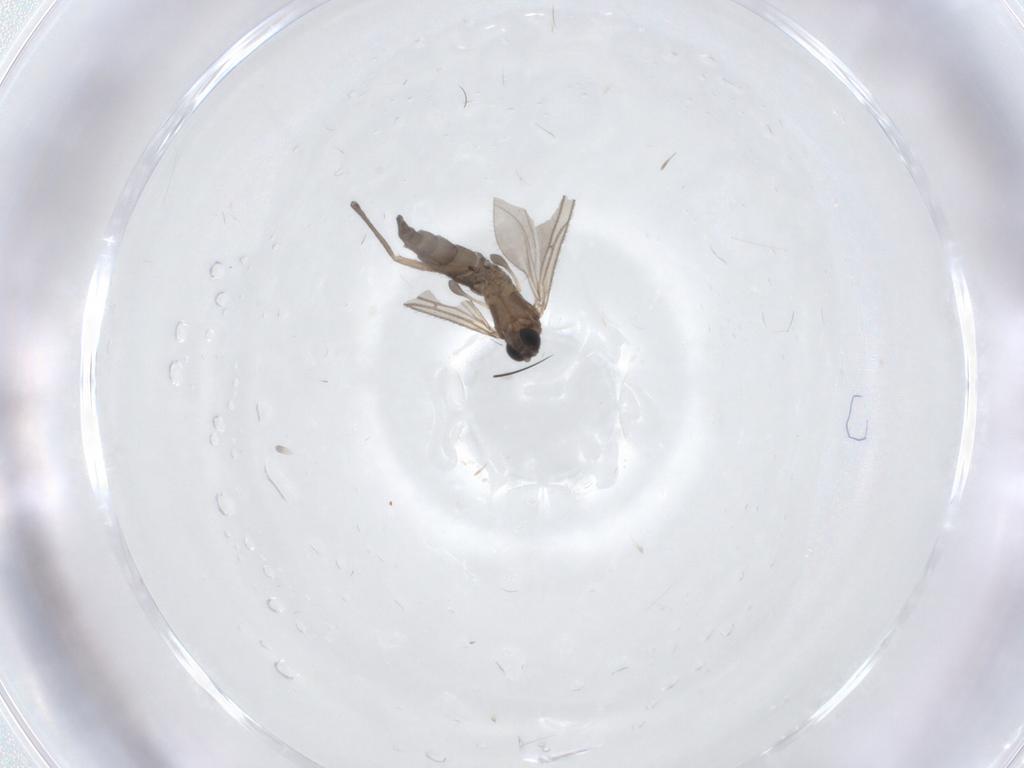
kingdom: Animalia
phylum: Arthropoda
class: Insecta
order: Diptera
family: Sciaridae
